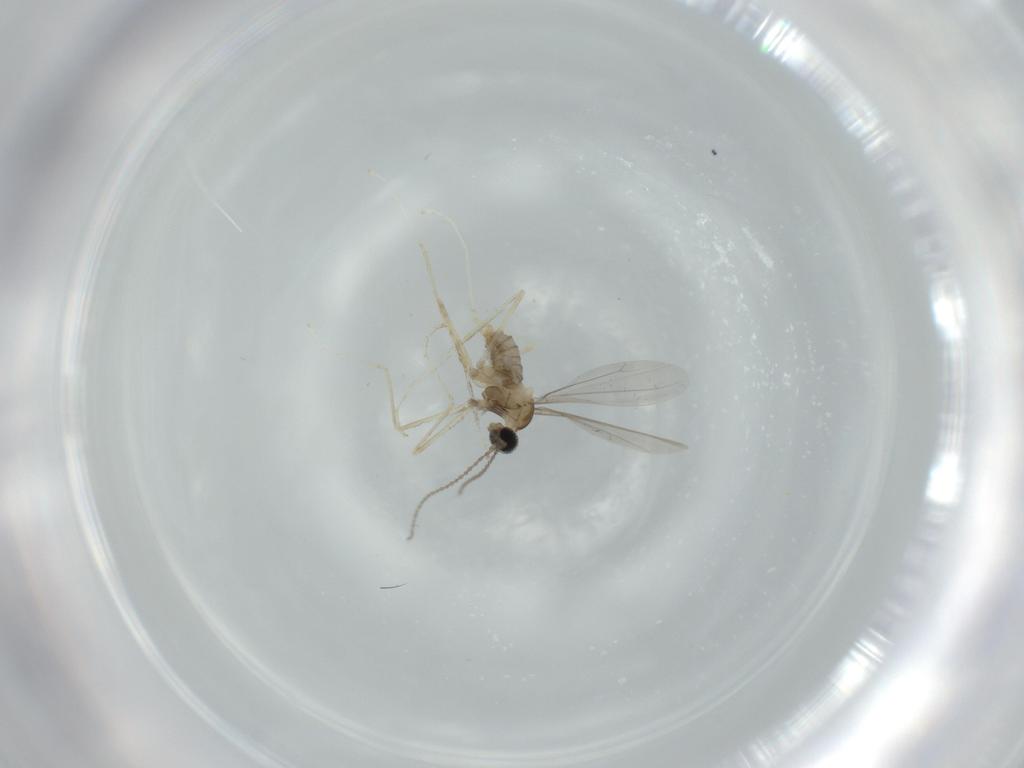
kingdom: Animalia
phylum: Arthropoda
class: Insecta
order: Diptera
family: Cecidomyiidae
